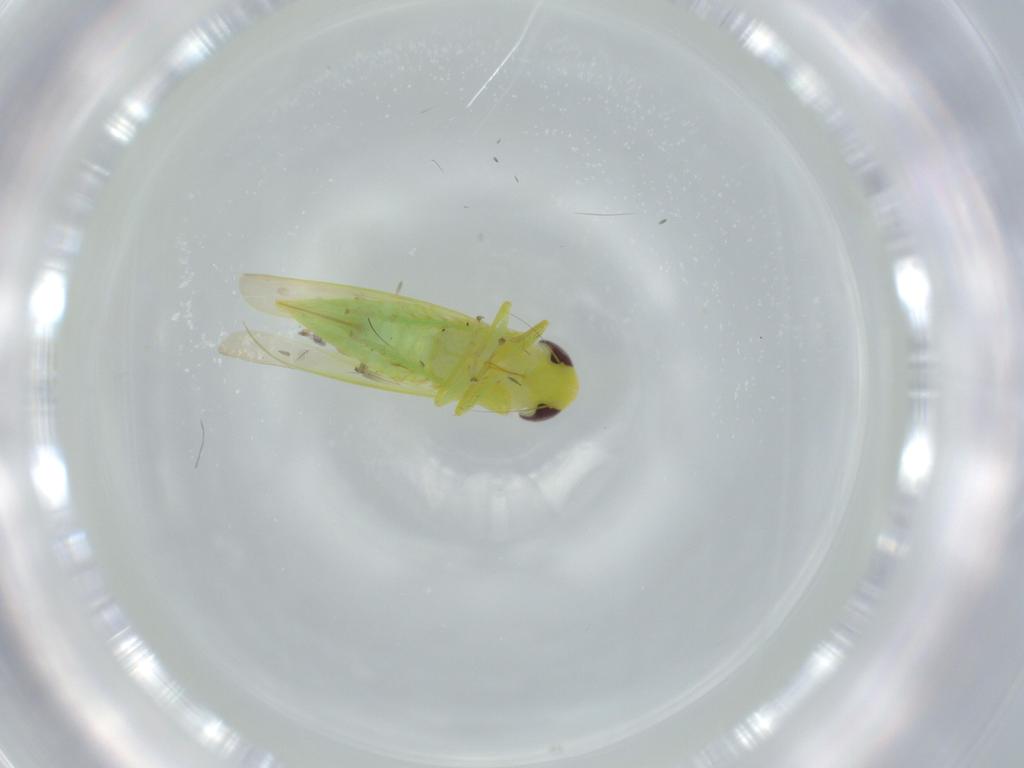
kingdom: Animalia
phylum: Arthropoda
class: Insecta
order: Hemiptera
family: Cicadellidae
